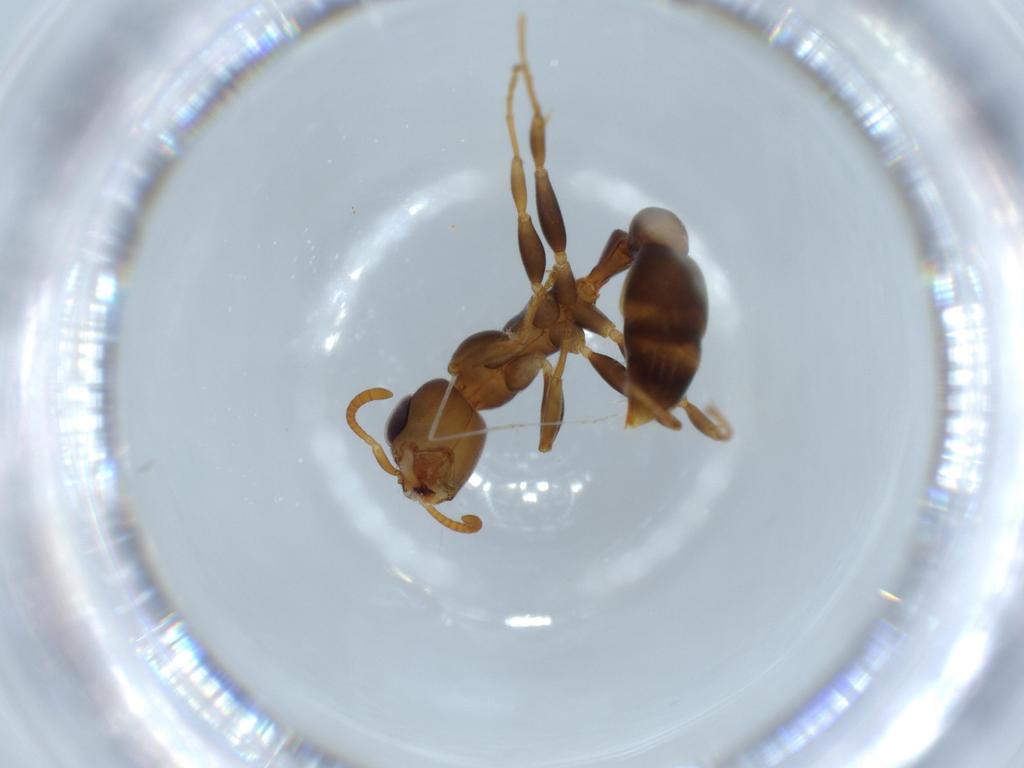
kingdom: Animalia
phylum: Arthropoda
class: Insecta
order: Hymenoptera
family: Formicidae
